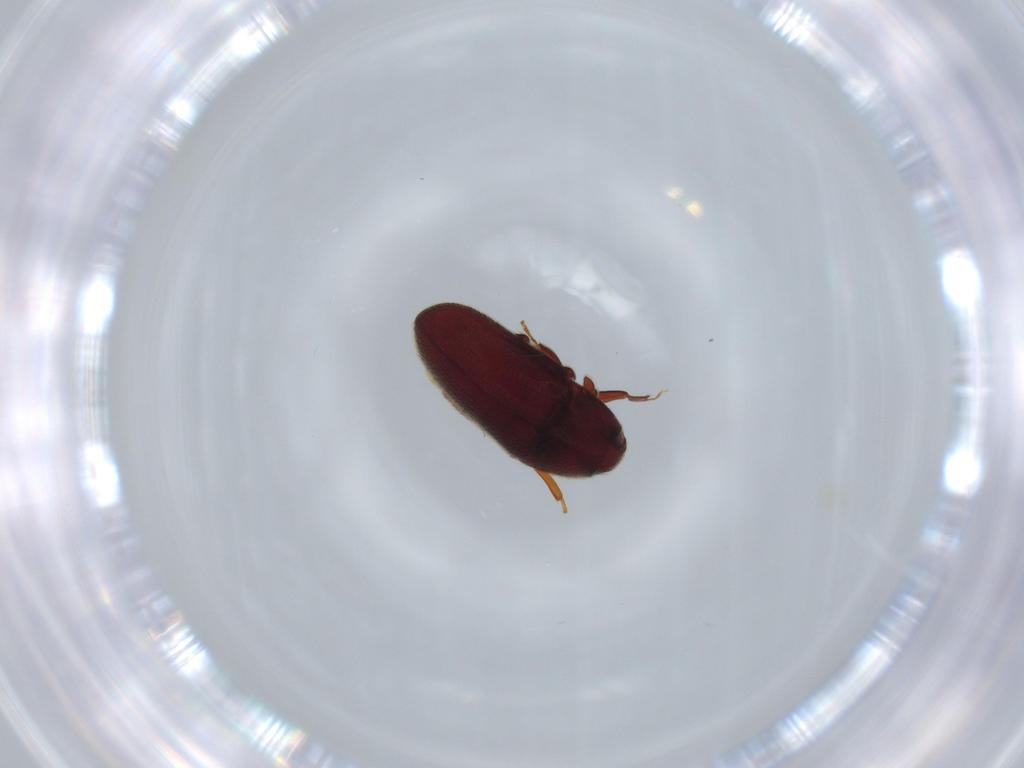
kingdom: Animalia
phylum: Arthropoda
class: Insecta
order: Coleoptera
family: Throscidae
